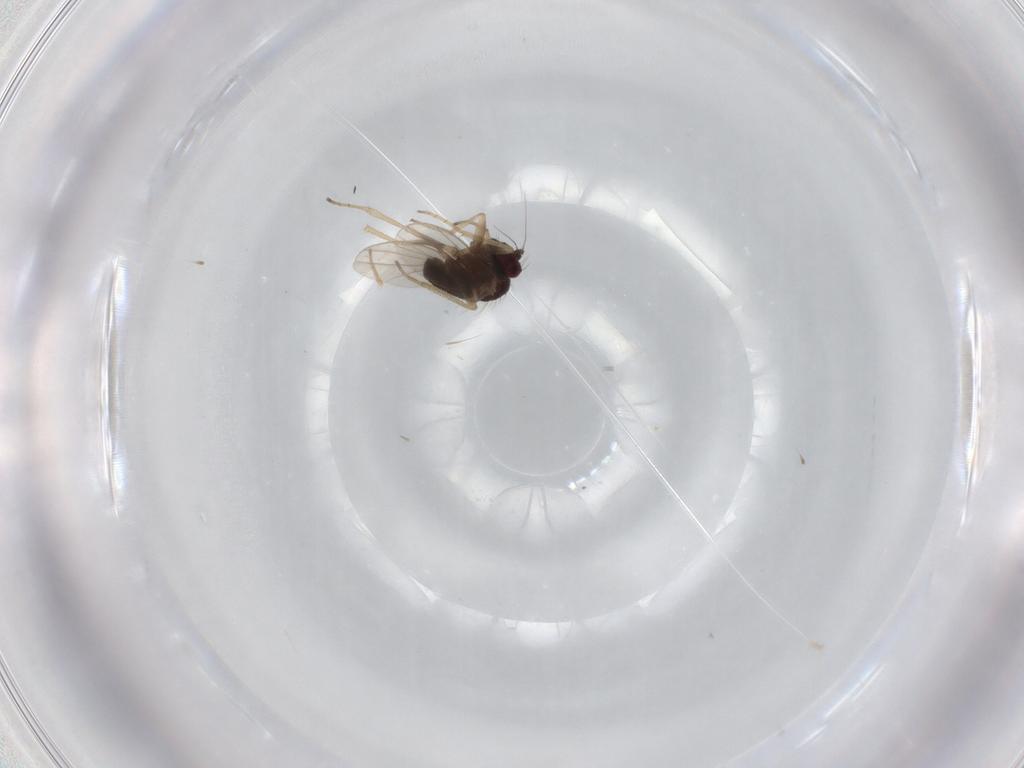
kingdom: Animalia
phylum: Arthropoda
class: Insecta
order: Diptera
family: Dolichopodidae
